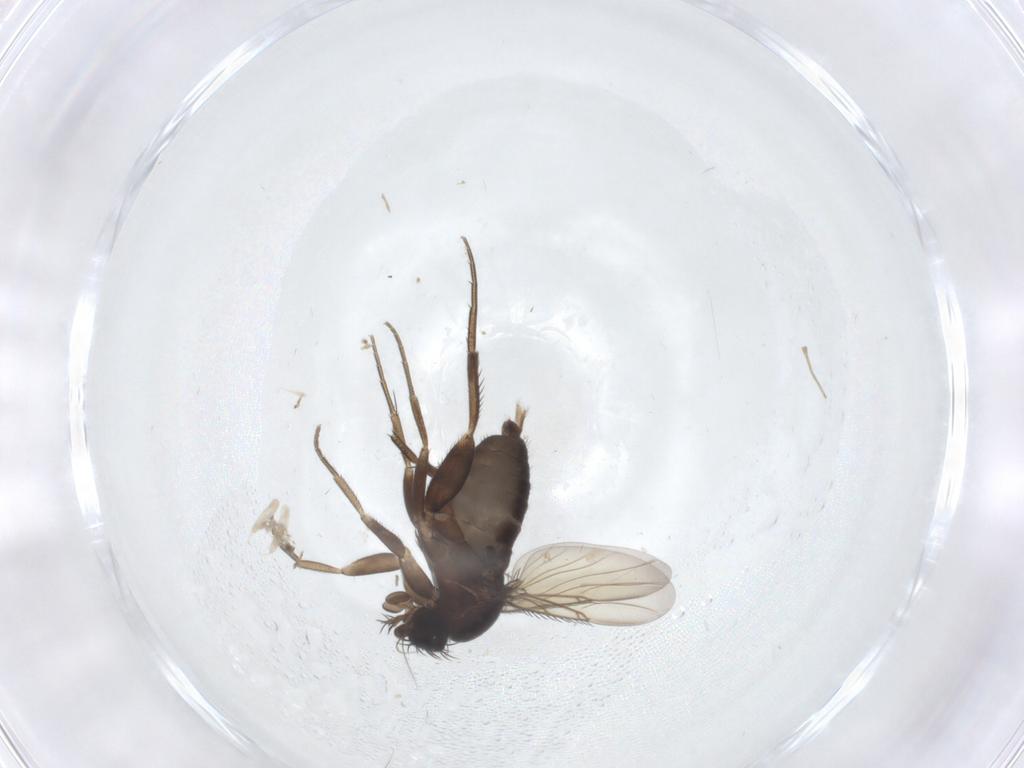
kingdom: Animalia
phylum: Arthropoda
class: Insecta
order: Diptera
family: Phoridae
